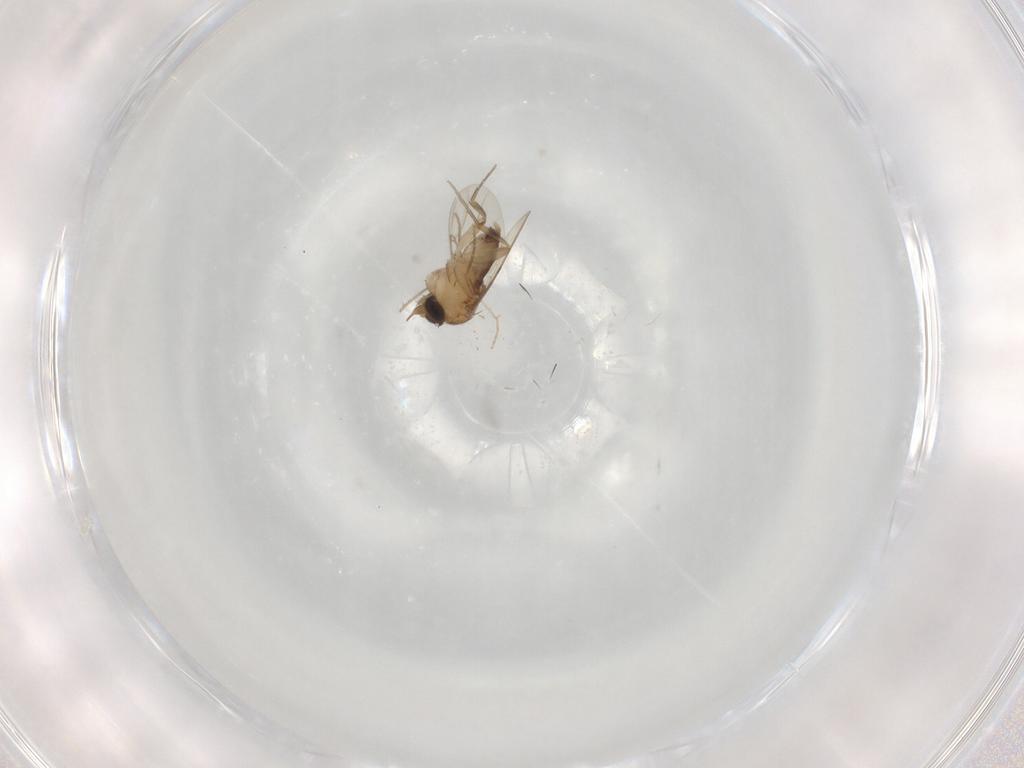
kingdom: Animalia
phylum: Arthropoda
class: Insecta
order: Diptera
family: Phoridae
